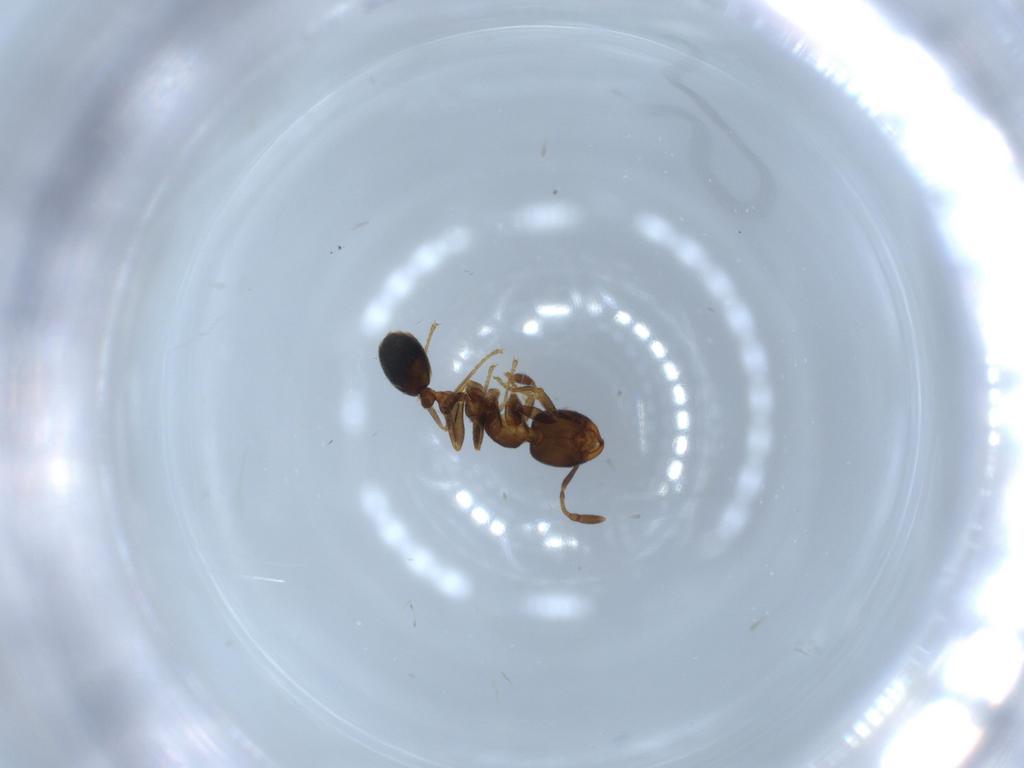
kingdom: Animalia
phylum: Arthropoda
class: Insecta
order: Hymenoptera
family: Formicidae
